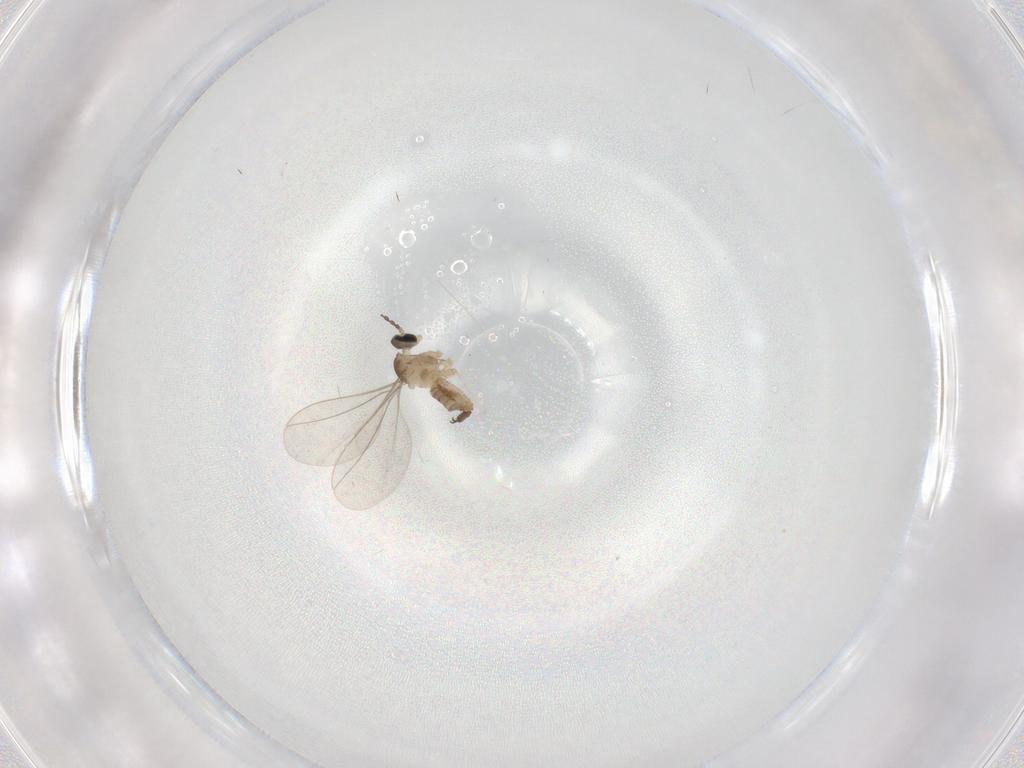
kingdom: Animalia
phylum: Arthropoda
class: Insecta
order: Diptera
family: Cecidomyiidae
